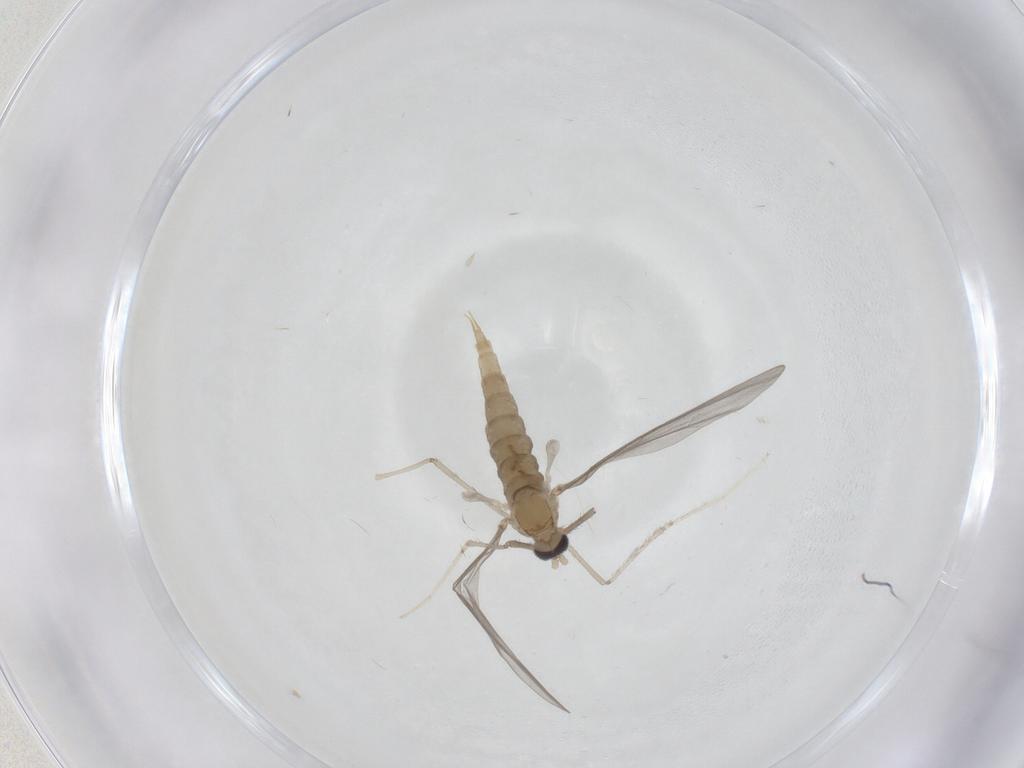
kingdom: Animalia
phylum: Arthropoda
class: Insecta
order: Diptera
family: Cecidomyiidae
